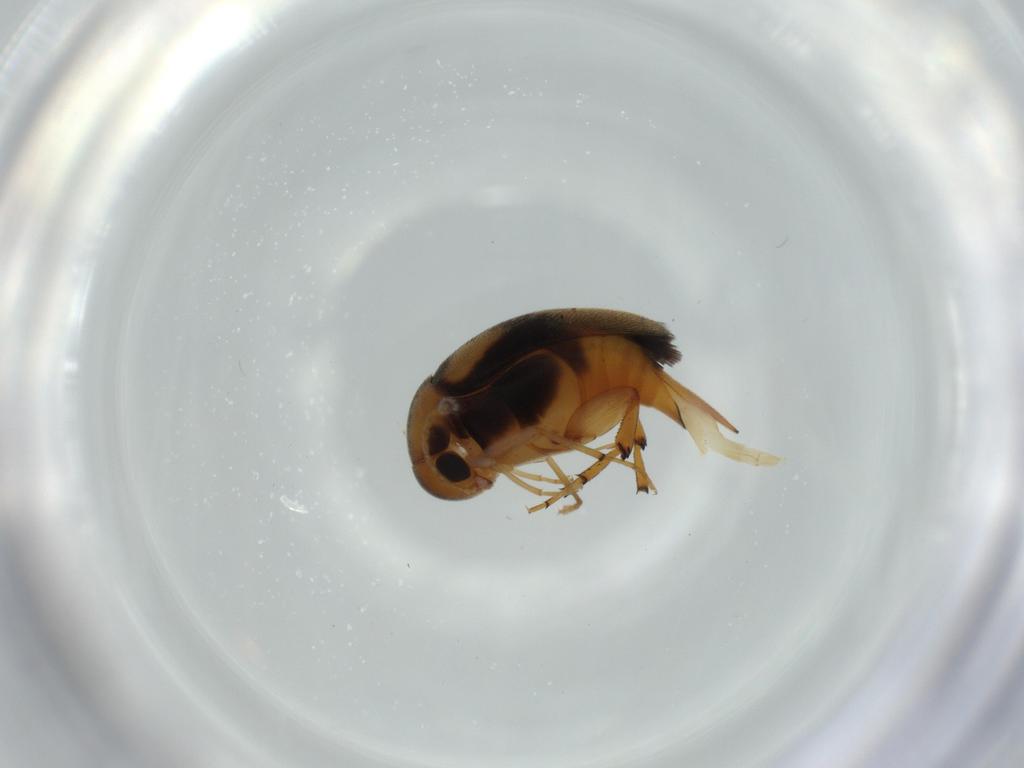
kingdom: Animalia
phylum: Arthropoda
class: Insecta
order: Coleoptera
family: Mordellidae
